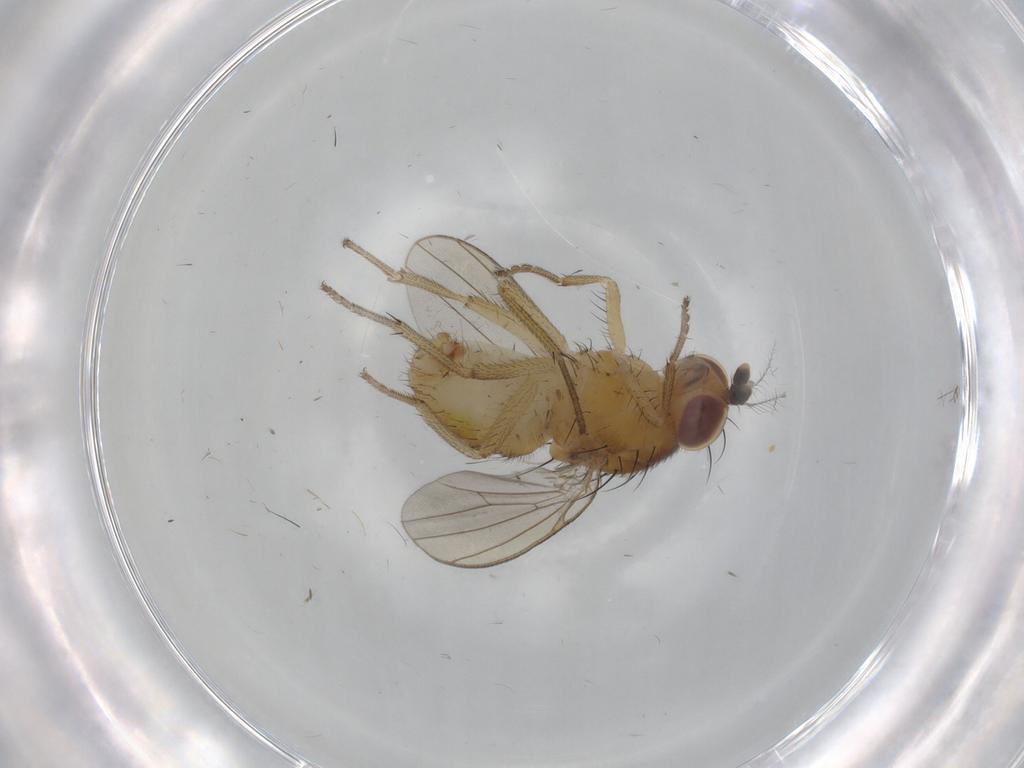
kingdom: Animalia
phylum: Arthropoda
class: Insecta
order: Diptera
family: Lauxaniidae
